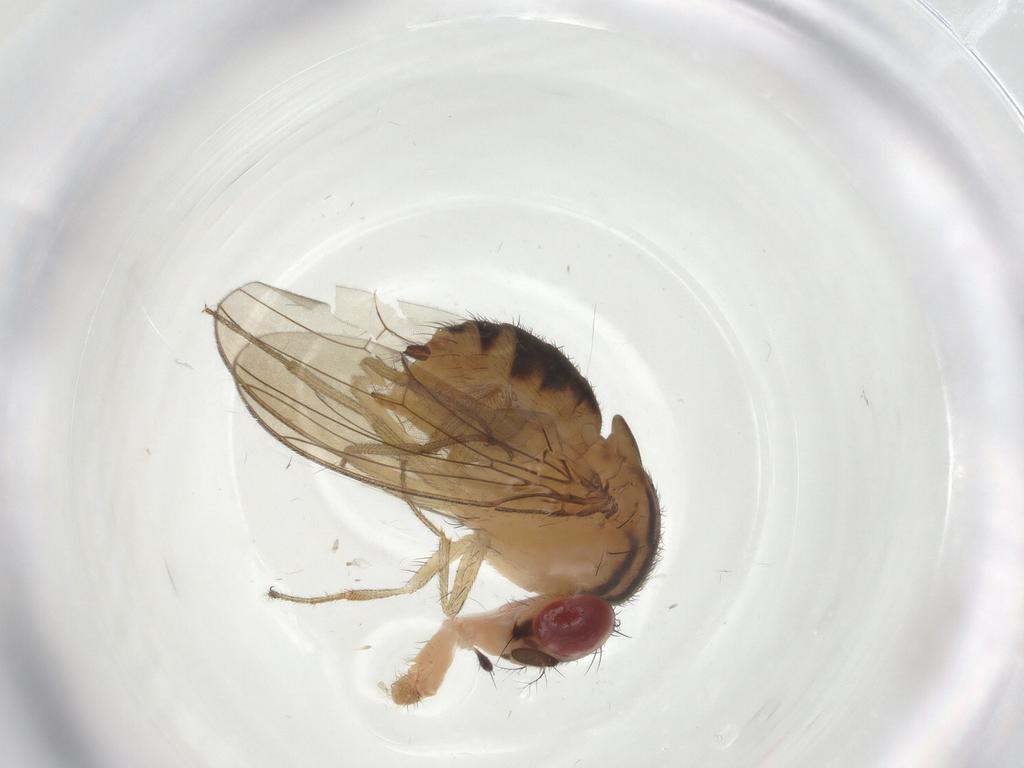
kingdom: Animalia
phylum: Arthropoda
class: Insecta
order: Diptera
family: Drosophilidae
